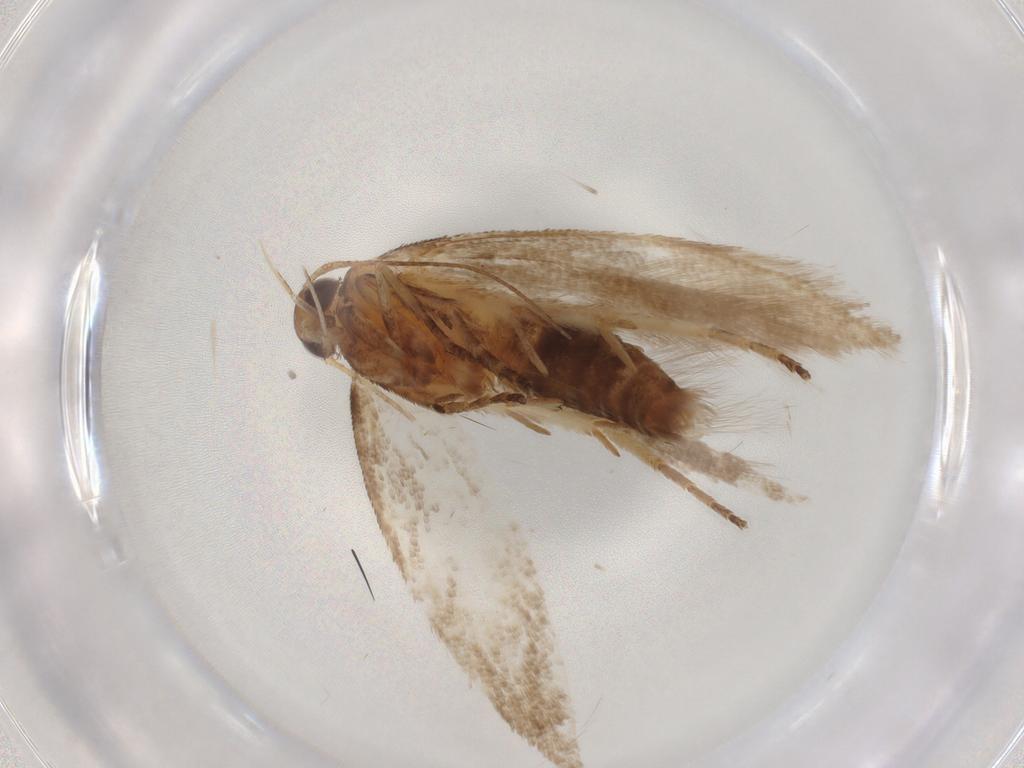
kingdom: Animalia
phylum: Arthropoda
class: Insecta
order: Lepidoptera
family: Gelechiidae
